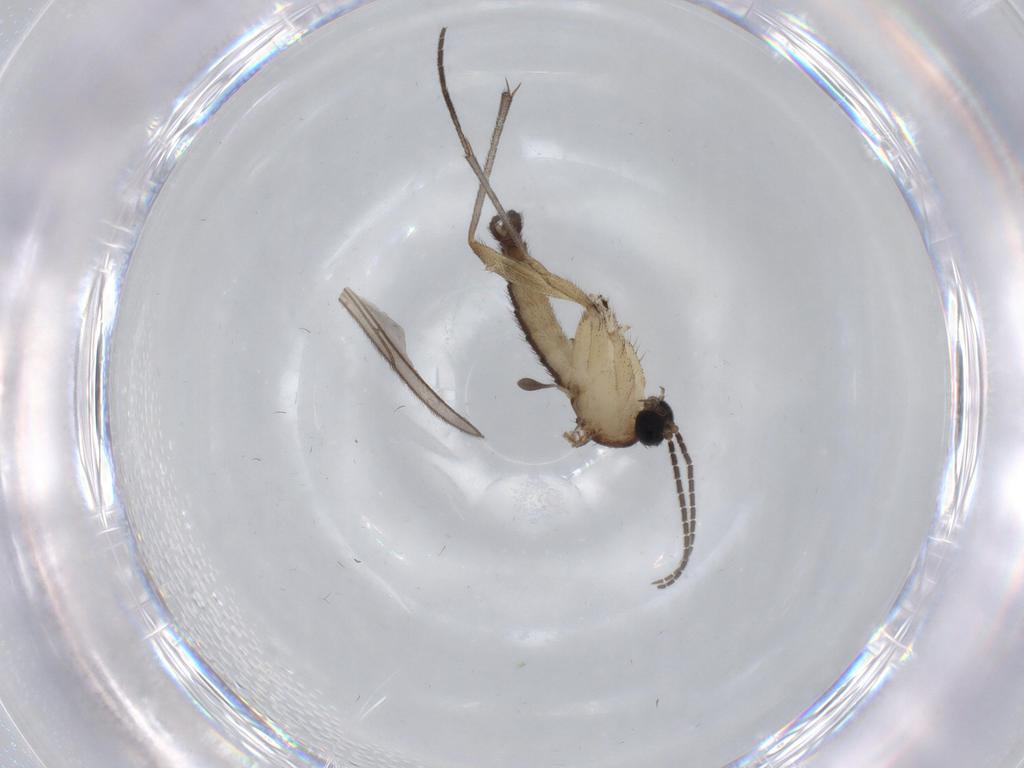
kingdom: Animalia
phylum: Arthropoda
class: Insecta
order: Diptera
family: Sciaridae
